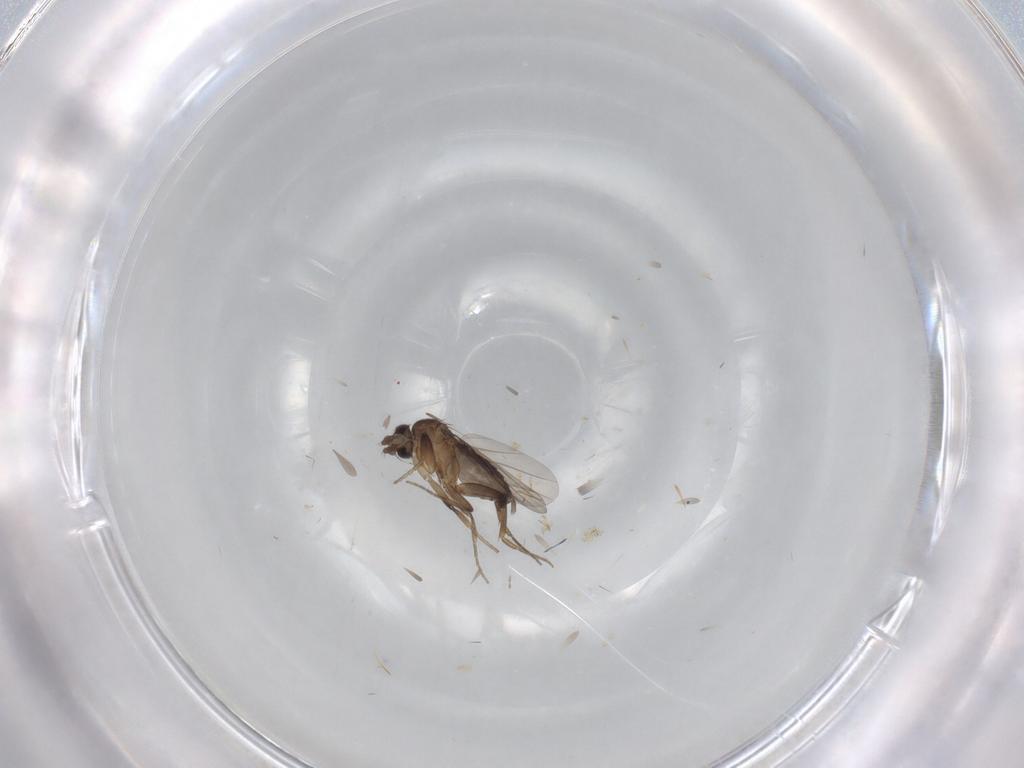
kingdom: Animalia
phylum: Arthropoda
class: Insecta
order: Diptera
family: Phoridae
